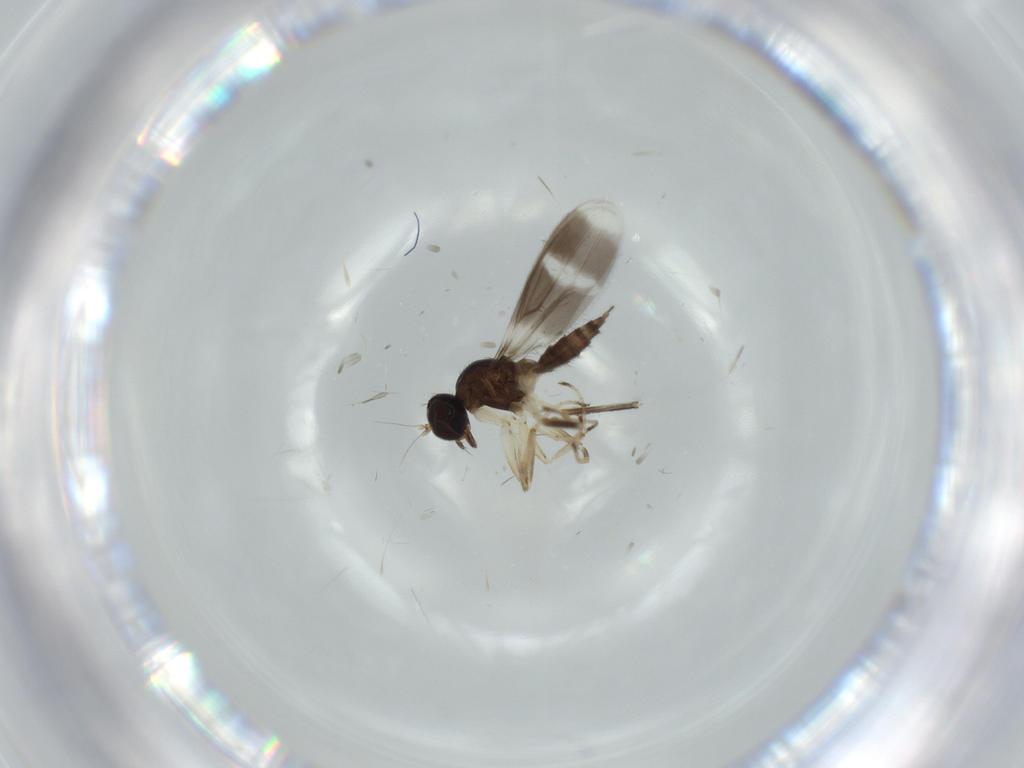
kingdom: Animalia
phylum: Arthropoda
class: Insecta
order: Diptera
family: Hybotidae
